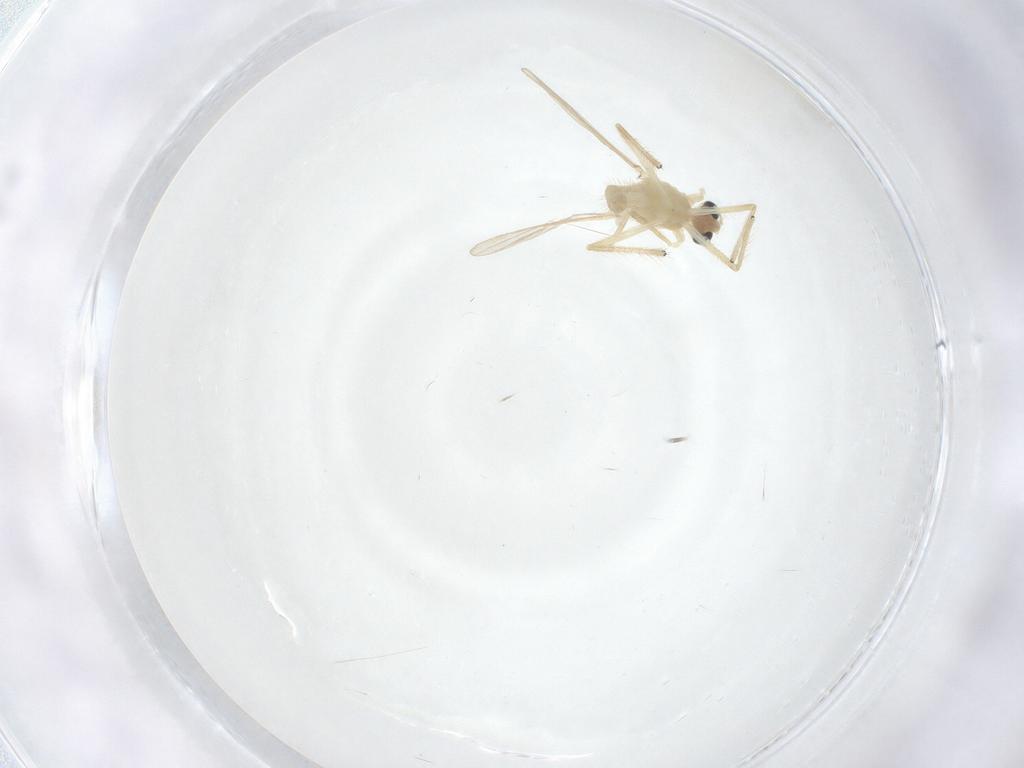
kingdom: Animalia
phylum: Arthropoda
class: Insecta
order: Diptera
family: Chironomidae
